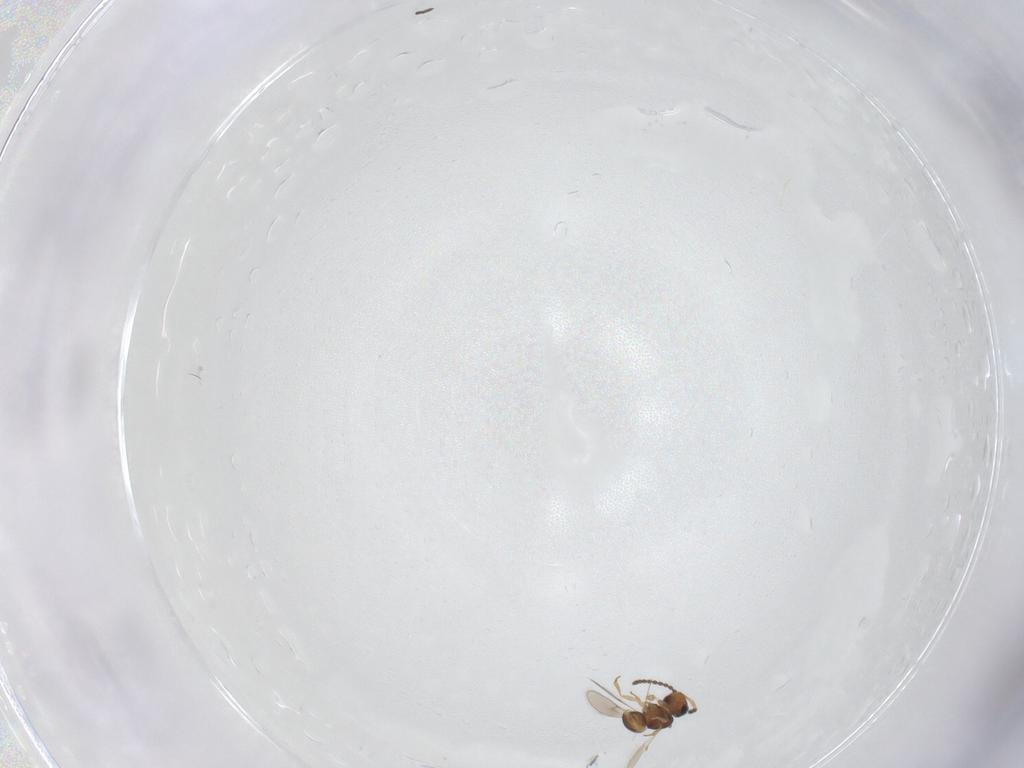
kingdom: Animalia
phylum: Arthropoda
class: Insecta
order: Hymenoptera
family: Scelionidae
